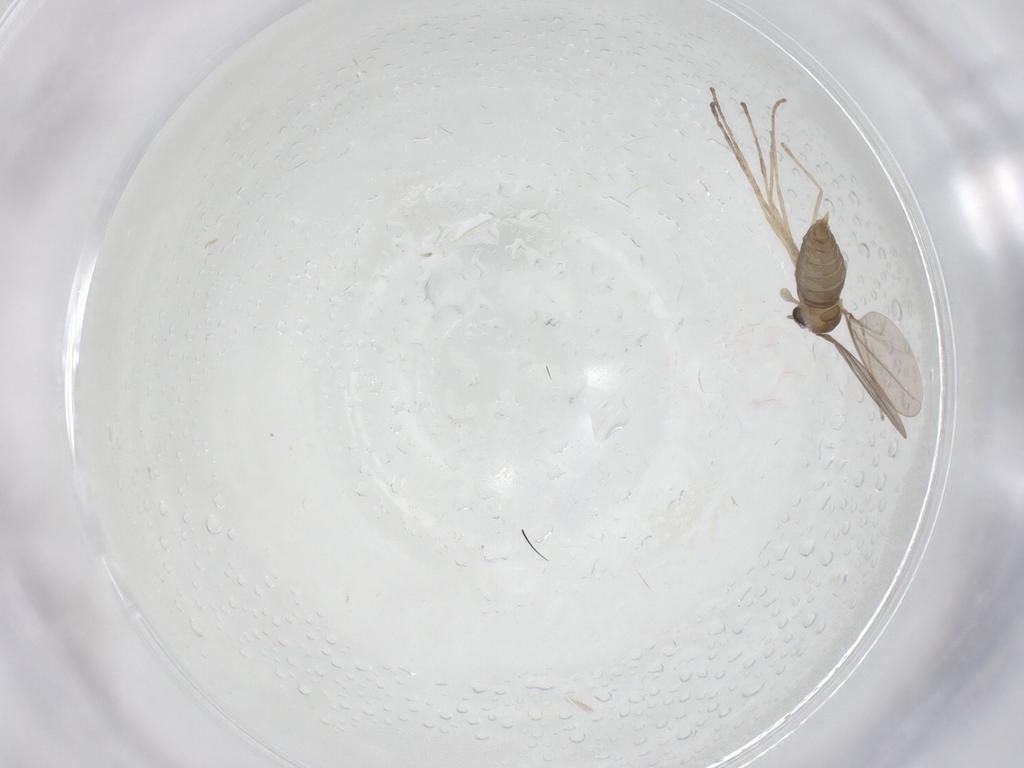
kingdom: Animalia
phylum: Arthropoda
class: Insecta
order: Diptera
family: Cecidomyiidae
